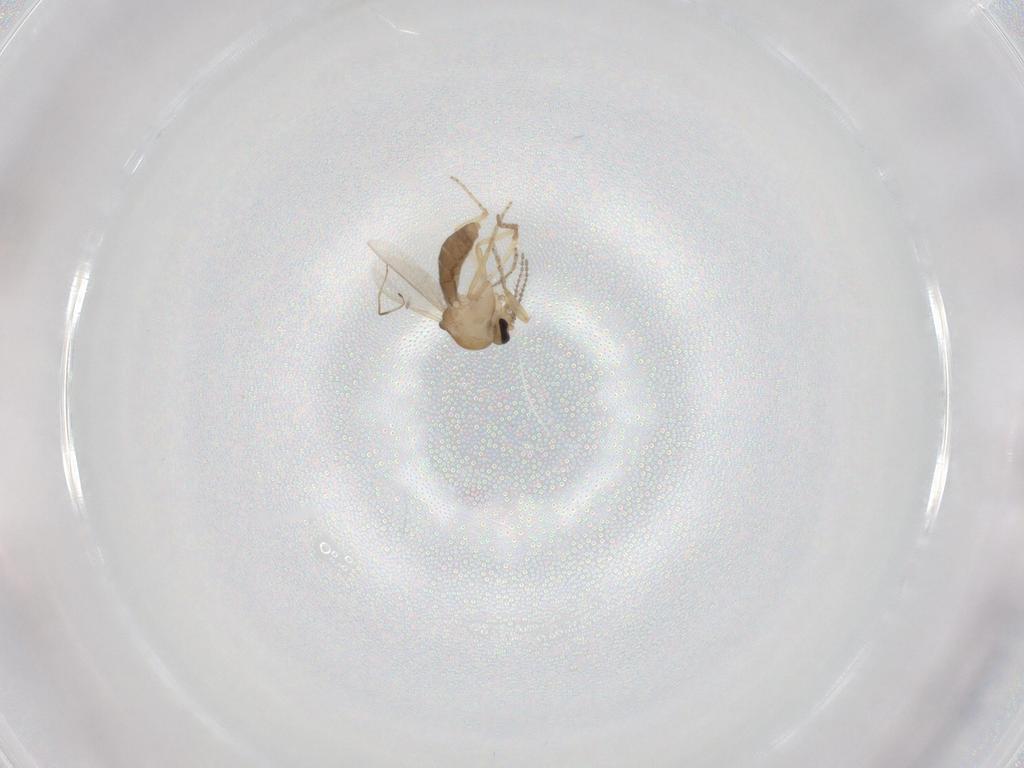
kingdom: Animalia
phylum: Arthropoda
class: Insecta
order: Diptera
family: Ceratopogonidae
